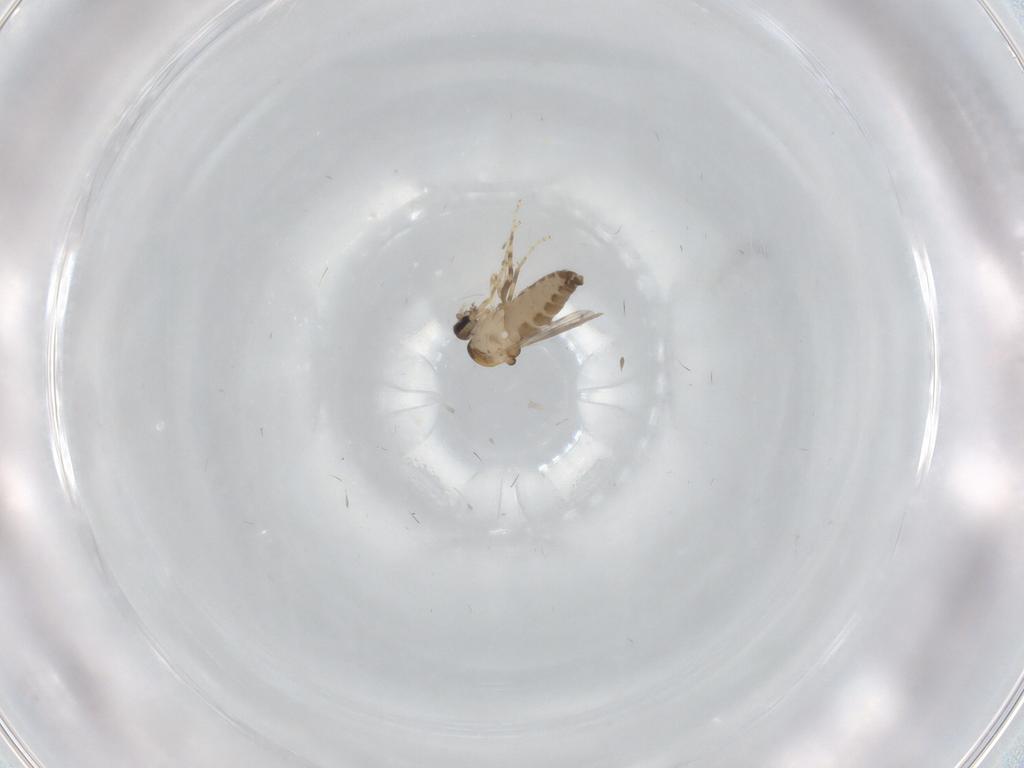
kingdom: Animalia
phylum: Arthropoda
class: Insecta
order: Diptera
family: Ceratopogonidae
